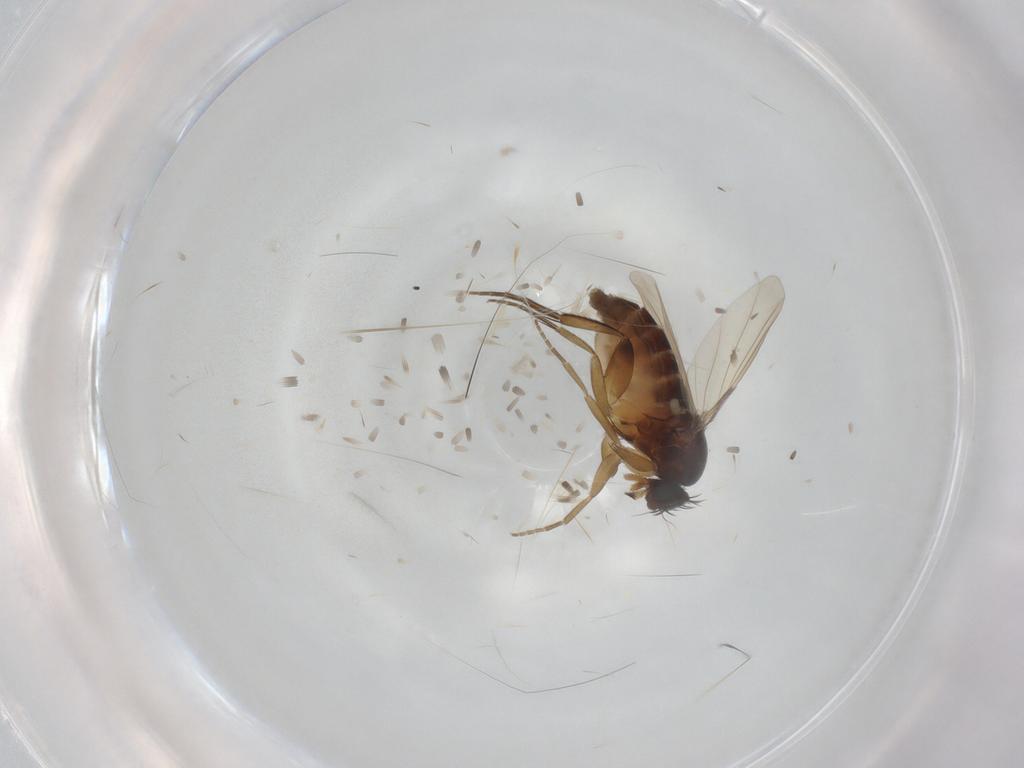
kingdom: Animalia
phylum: Arthropoda
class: Insecta
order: Diptera
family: Phoridae
